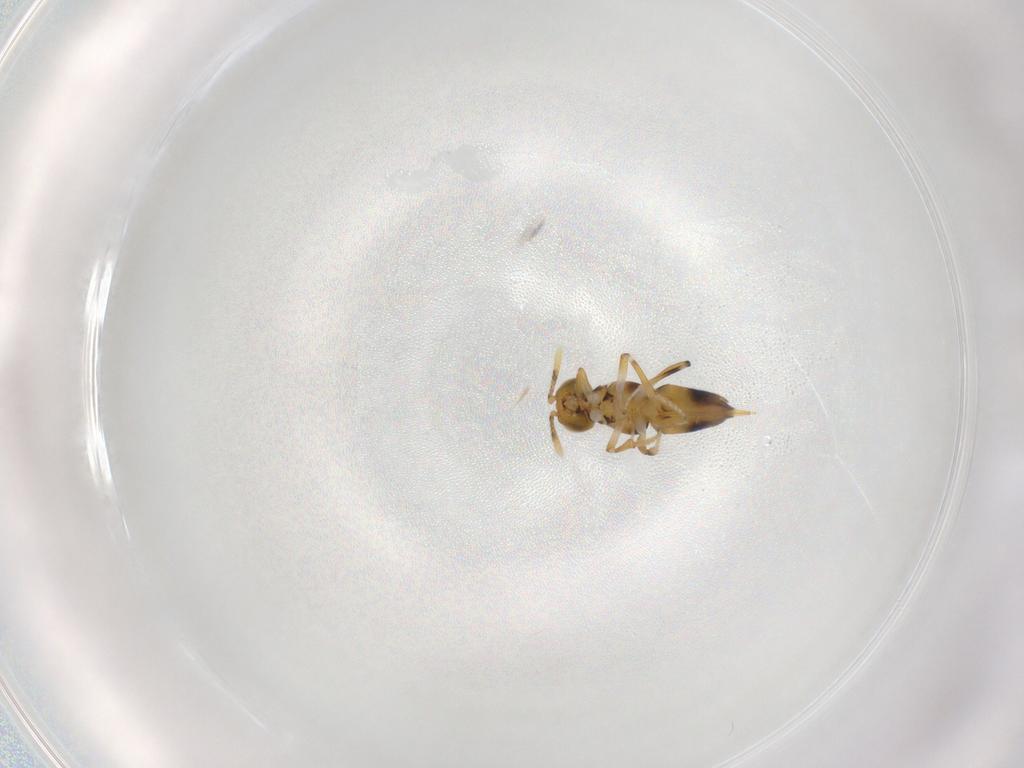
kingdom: Animalia
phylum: Arthropoda
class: Insecta
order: Hymenoptera
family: Encyrtidae
